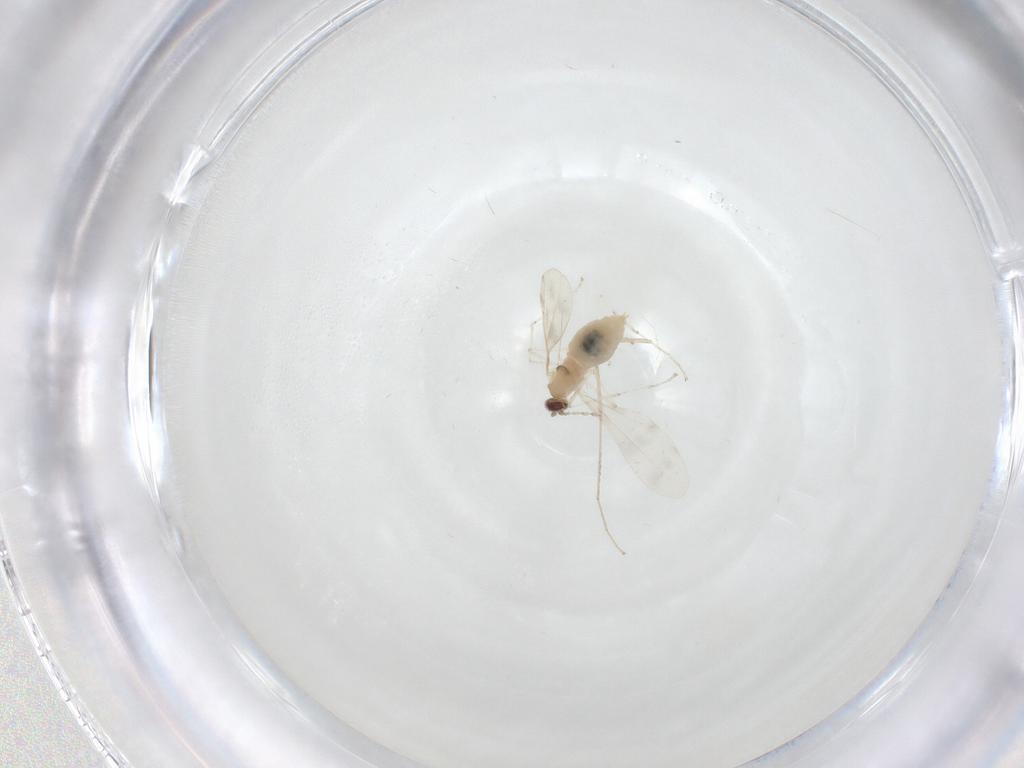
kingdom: Animalia
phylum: Arthropoda
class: Insecta
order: Diptera
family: Cecidomyiidae
